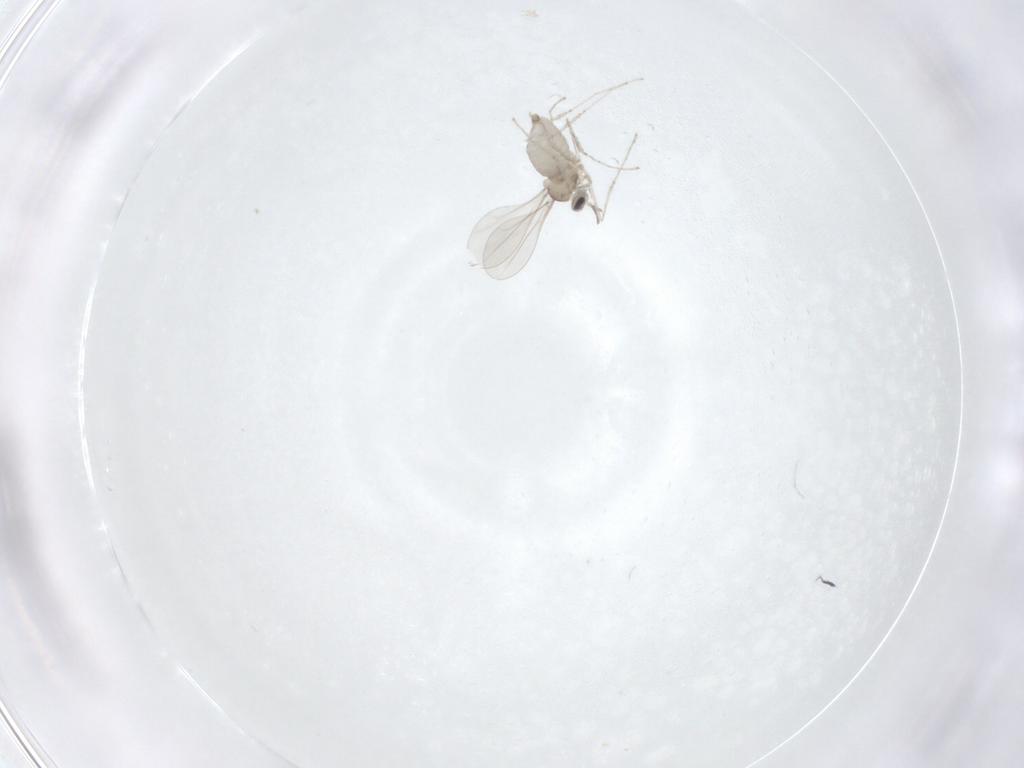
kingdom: Animalia
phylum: Arthropoda
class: Insecta
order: Diptera
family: Cecidomyiidae
